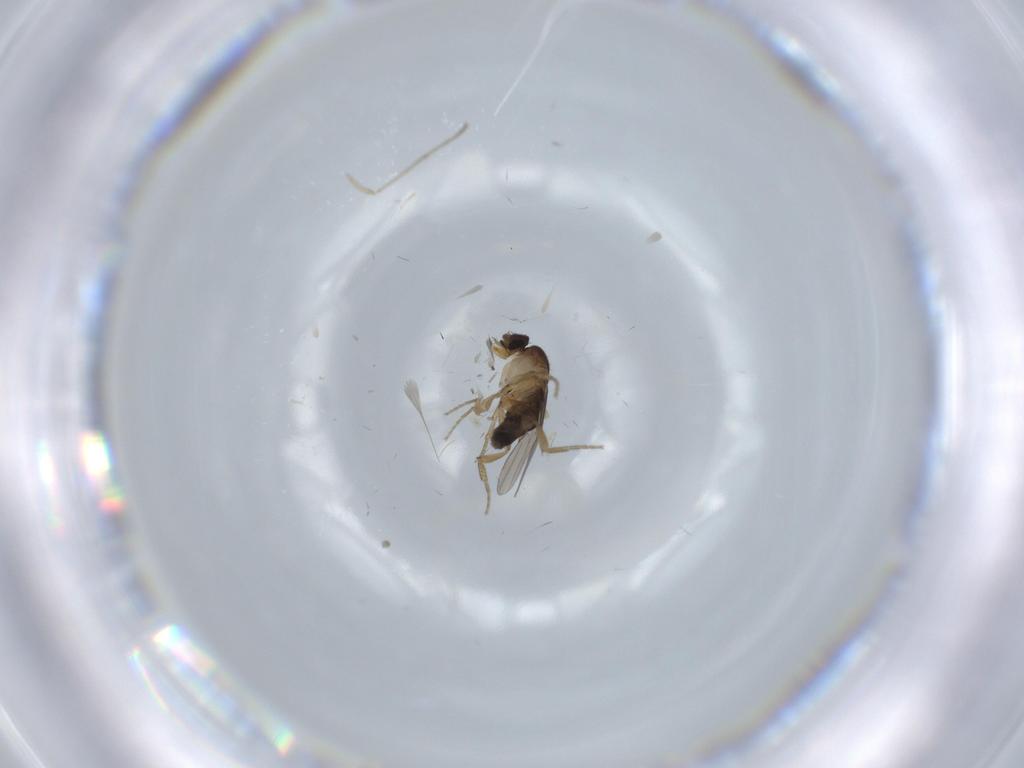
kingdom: Animalia
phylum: Arthropoda
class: Insecta
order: Diptera
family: Phoridae
